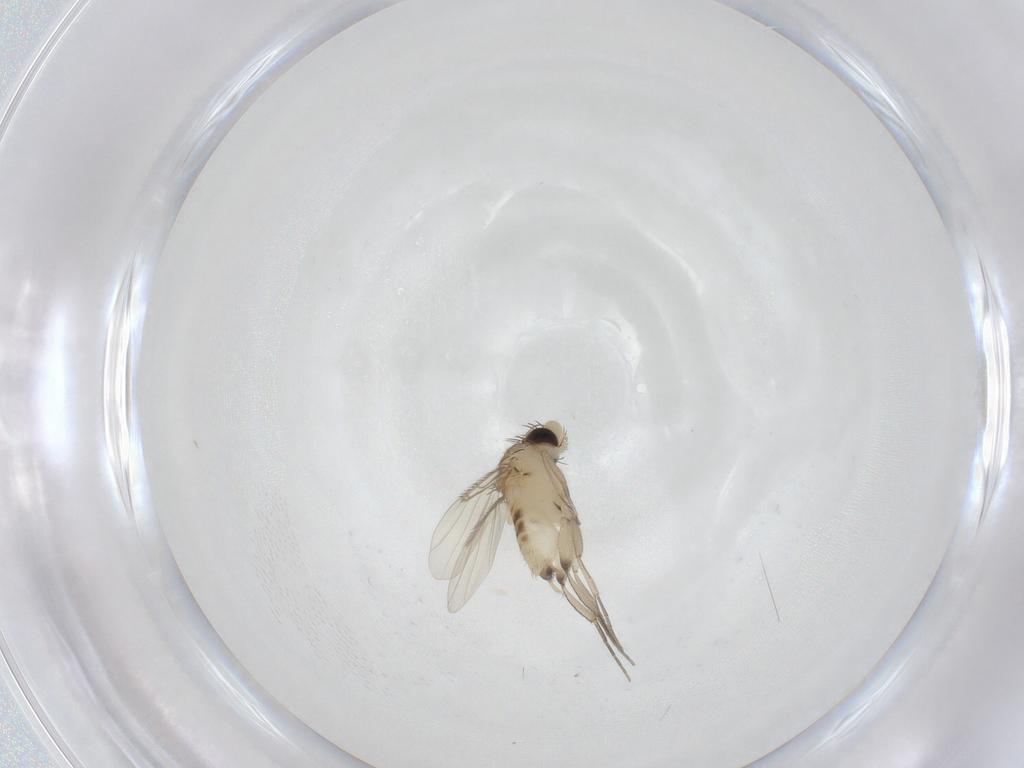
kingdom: Animalia
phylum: Arthropoda
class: Insecta
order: Diptera
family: Phoridae
